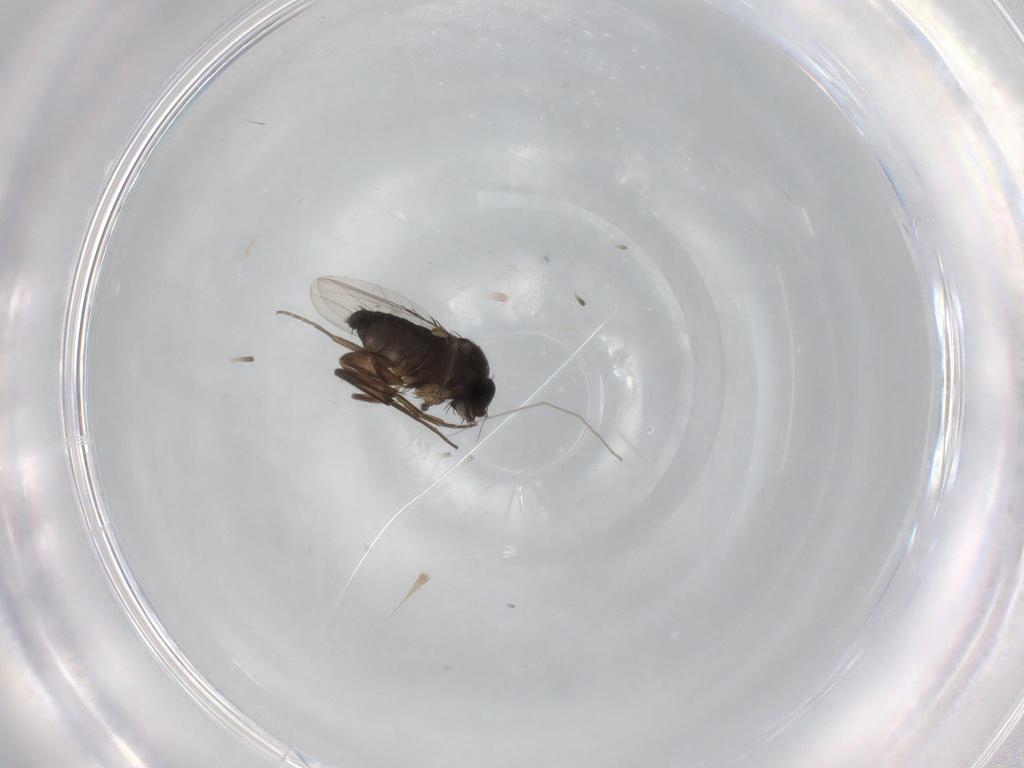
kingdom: Animalia
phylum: Arthropoda
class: Insecta
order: Diptera
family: Phoridae
